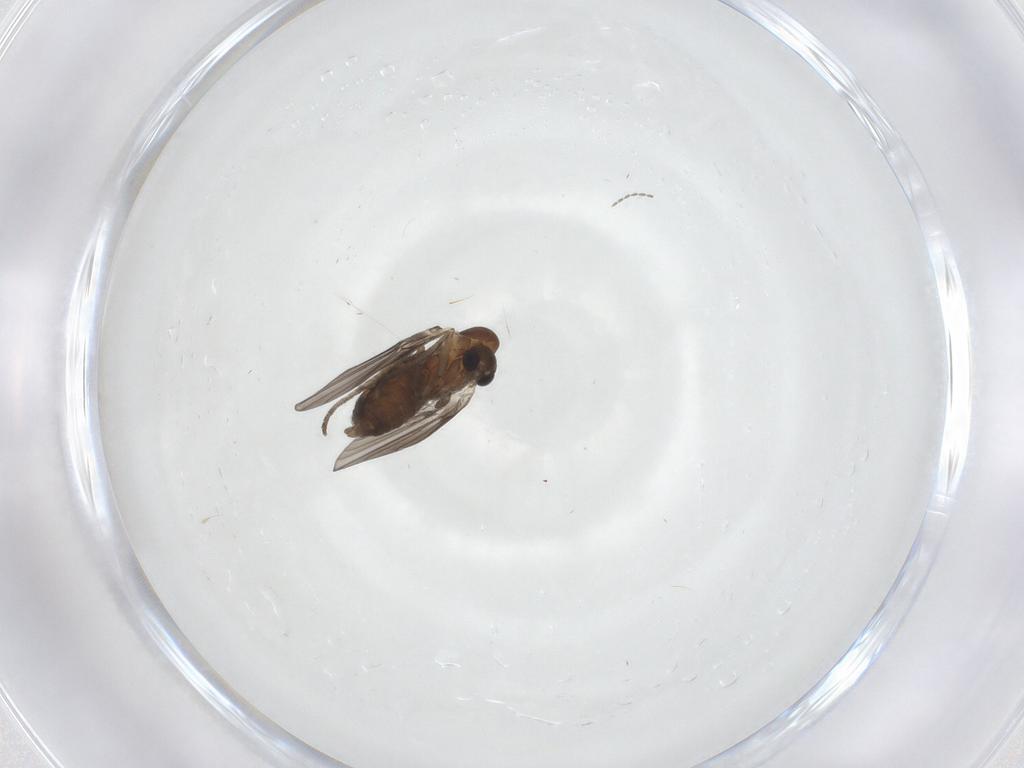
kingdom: Animalia
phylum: Arthropoda
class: Insecta
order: Diptera
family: Psychodidae
